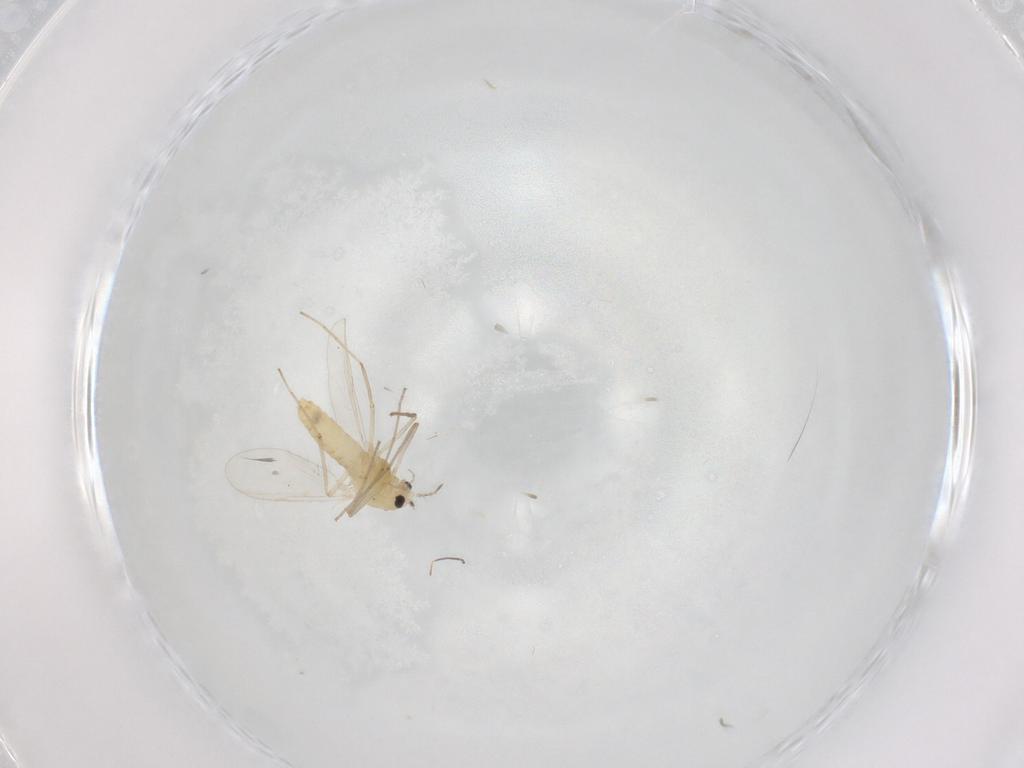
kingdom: Animalia
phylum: Arthropoda
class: Insecta
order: Diptera
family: Chironomidae
